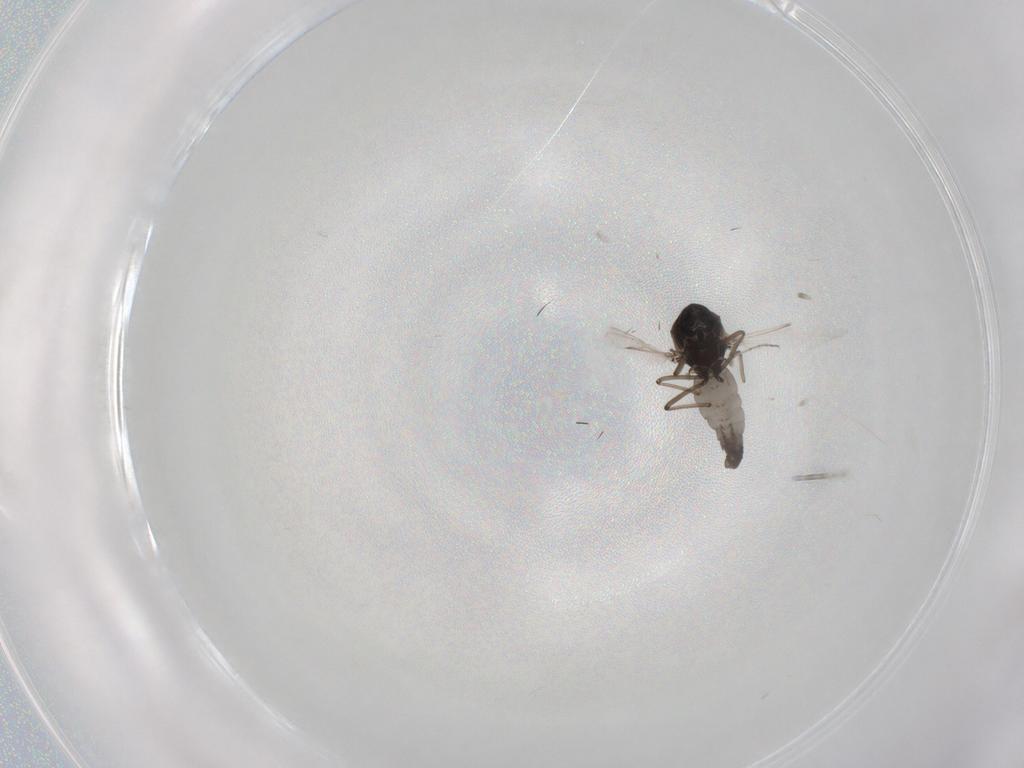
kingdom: Animalia
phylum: Arthropoda
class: Insecta
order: Diptera
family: Ceratopogonidae
